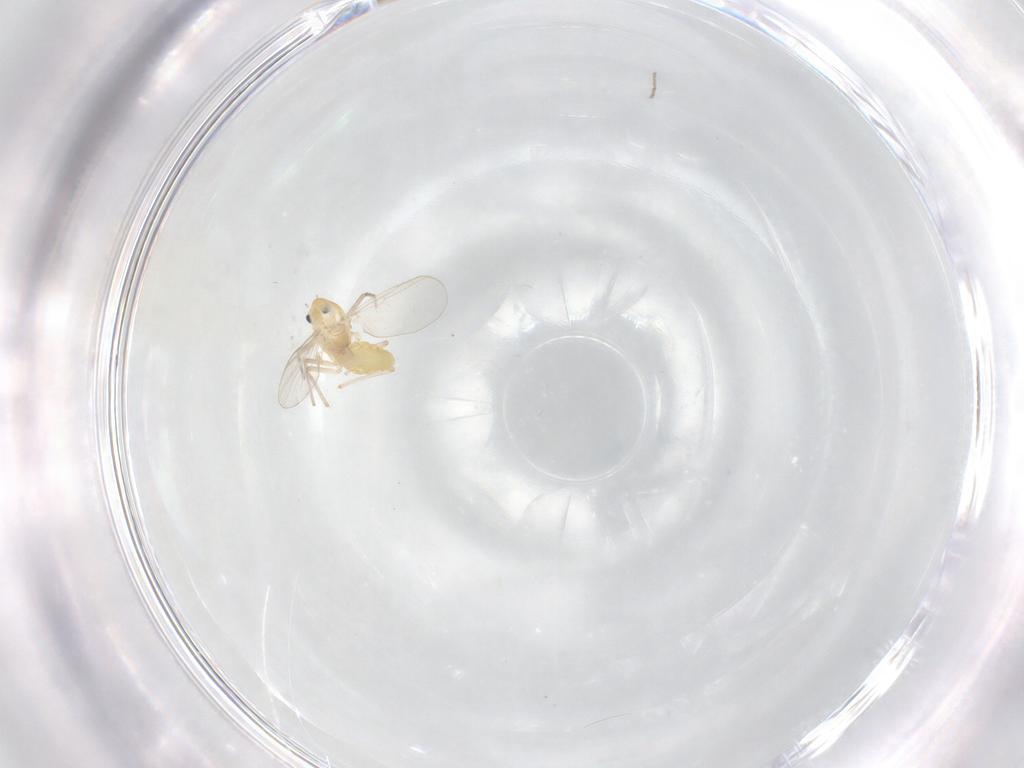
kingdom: Animalia
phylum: Arthropoda
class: Insecta
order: Diptera
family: Chironomidae
